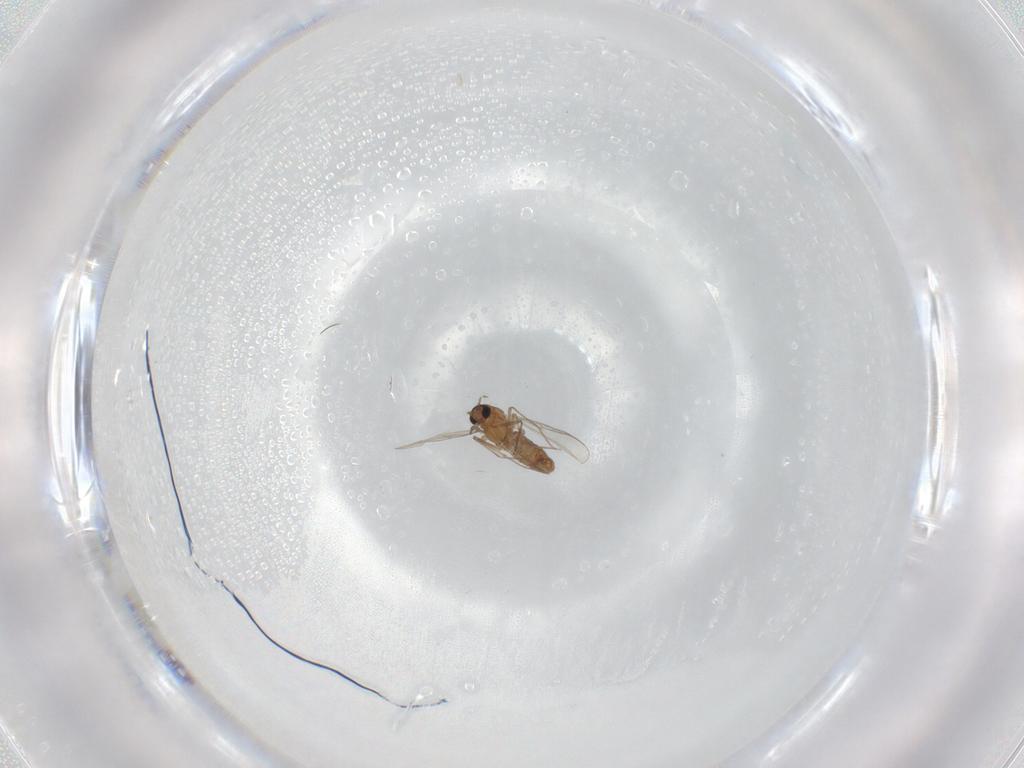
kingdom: Animalia
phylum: Arthropoda
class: Insecta
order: Diptera
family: Chironomidae
